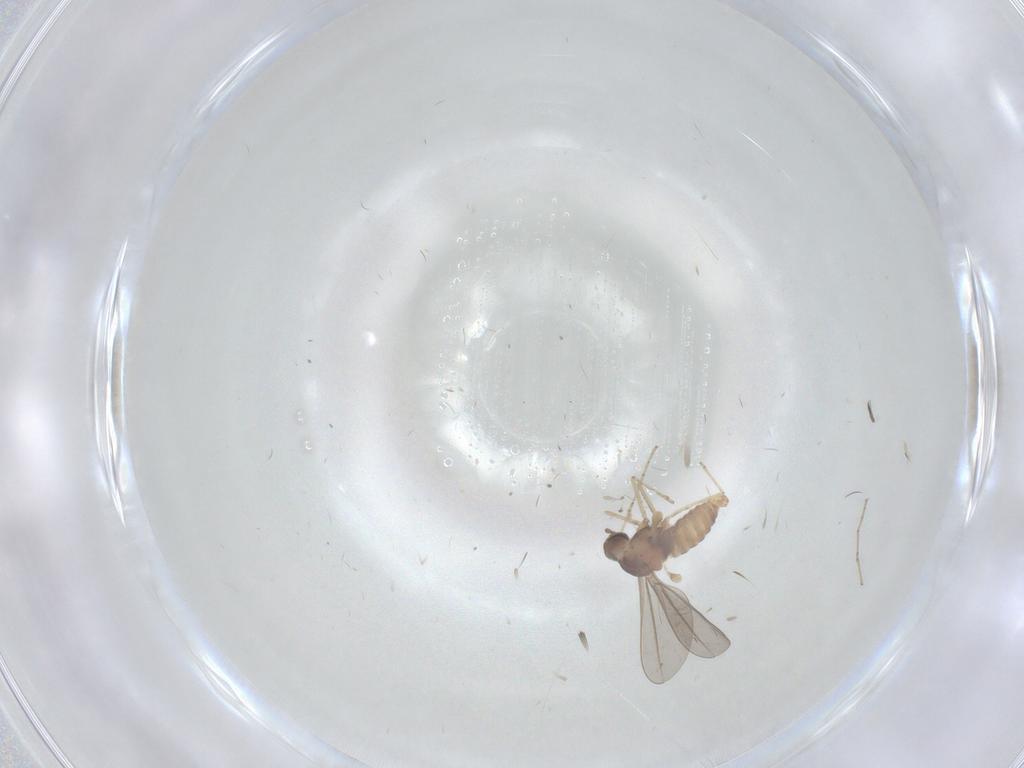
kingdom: Animalia
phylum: Arthropoda
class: Insecta
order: Diptera
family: Cecidomyiidae
